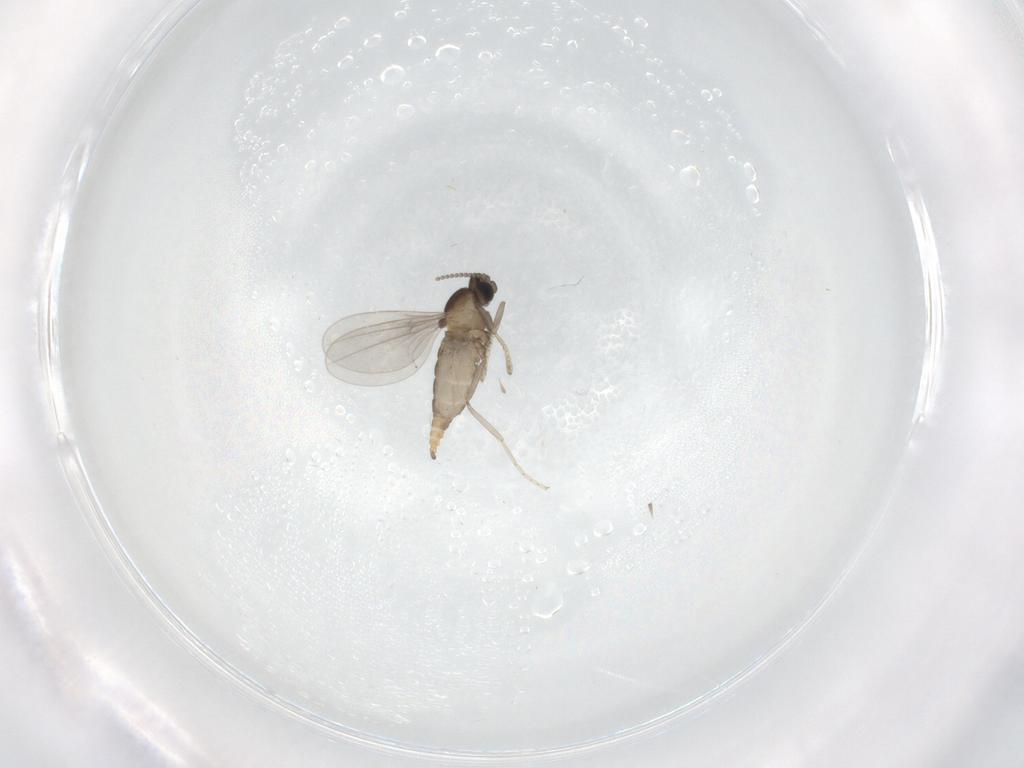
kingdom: Animalia
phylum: Arthropoda
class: Insecta
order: Diptera
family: Cecidomyiidae
